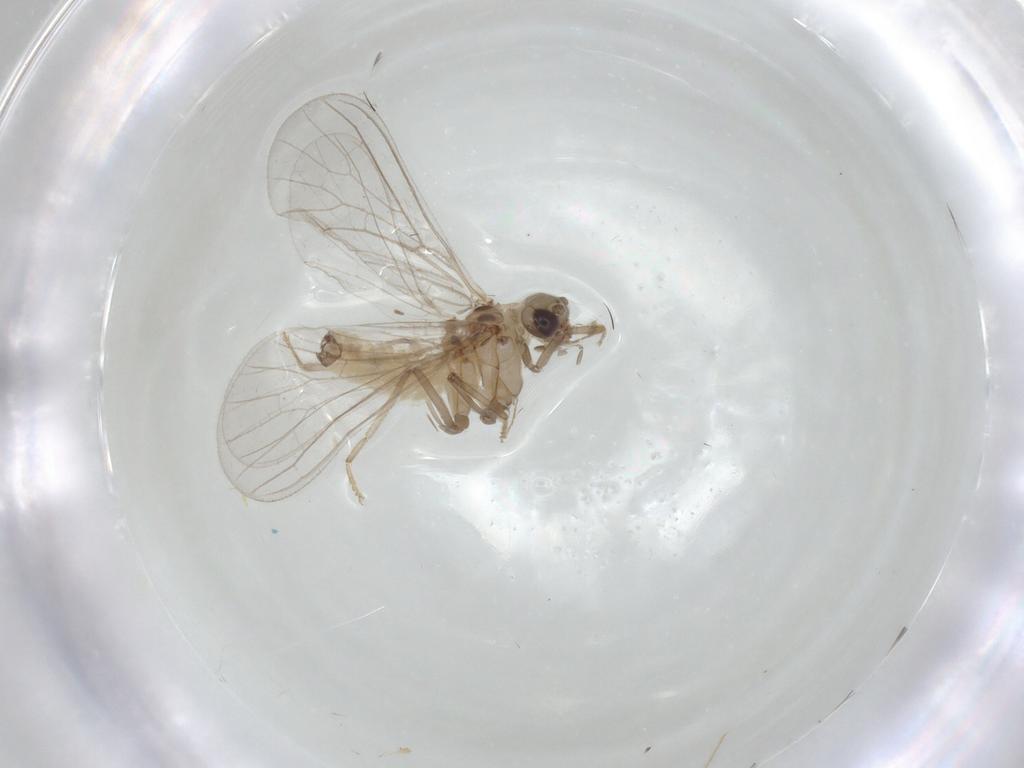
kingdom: Animalia
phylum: Arthropoda
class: Insecta
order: Neuroptera
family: Coniopterygidae
